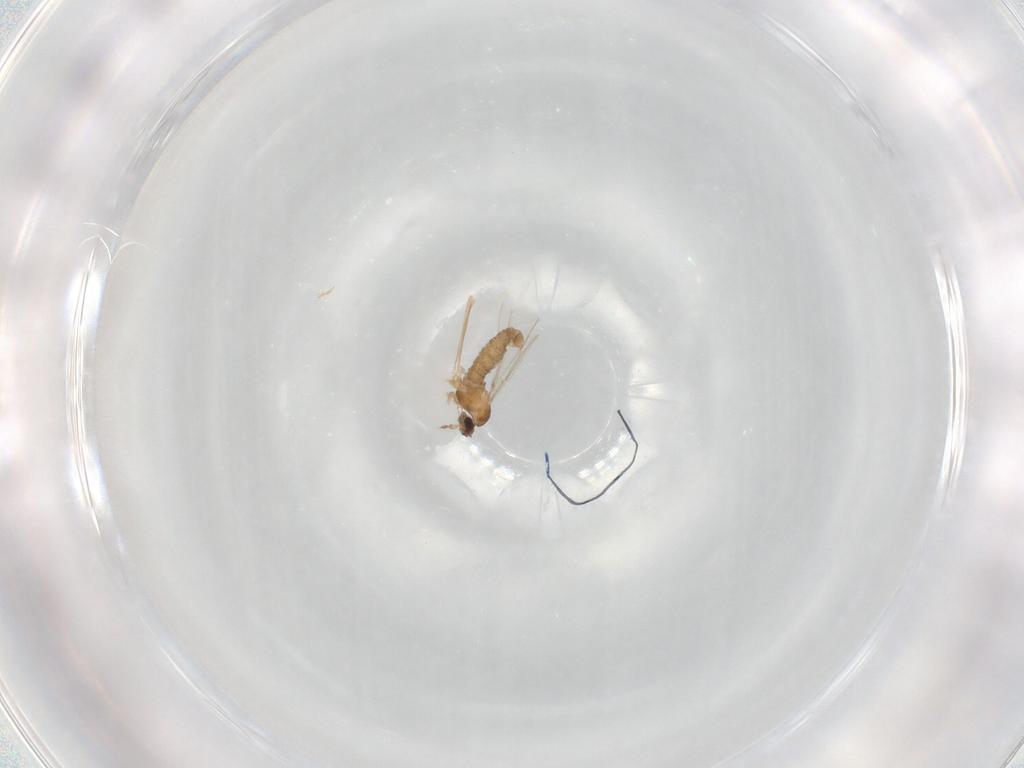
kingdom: Animalia
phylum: Arthropoda
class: Insecta
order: Diptera
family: Cecidomyiidae
